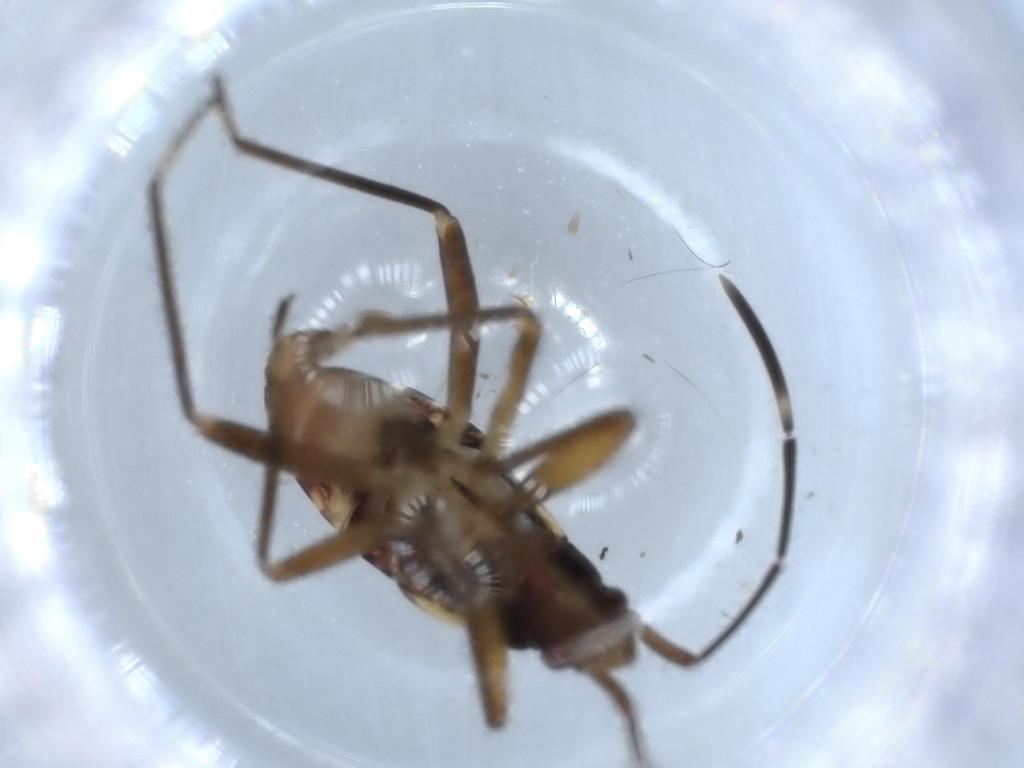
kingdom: Animalia
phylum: Arthropoda
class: Insecta
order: Hemiptera
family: Rhyparochromidae
